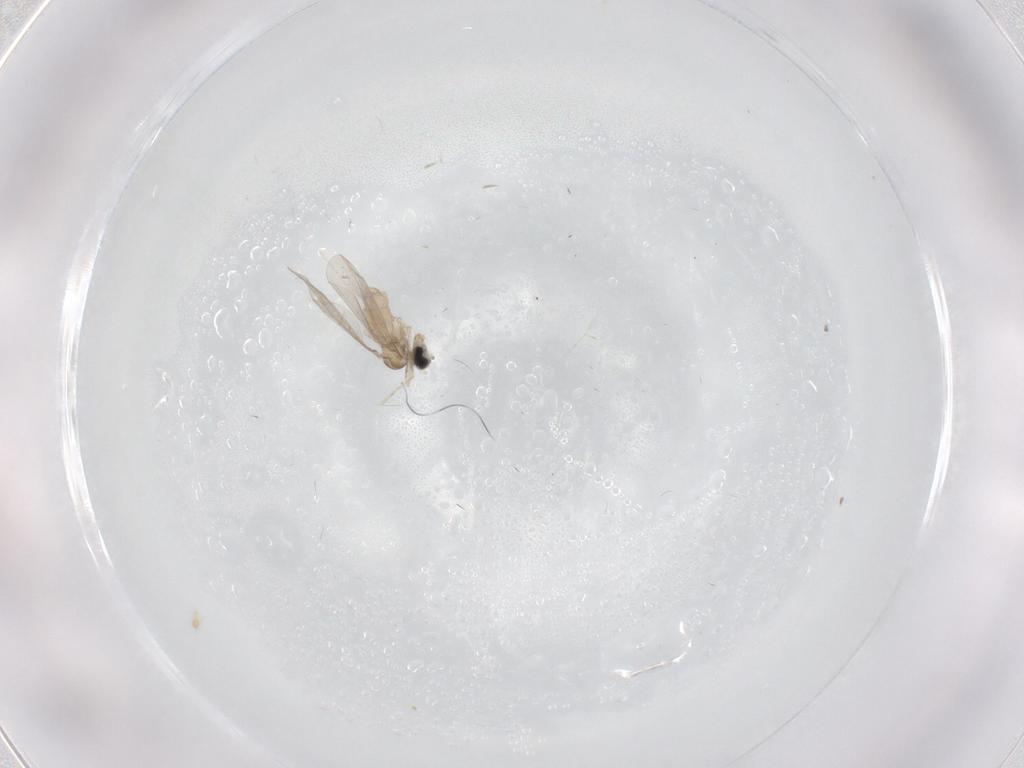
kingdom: Animalia
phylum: Arthropoda
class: Insecta
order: Diptera
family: Cecidomyiidae
